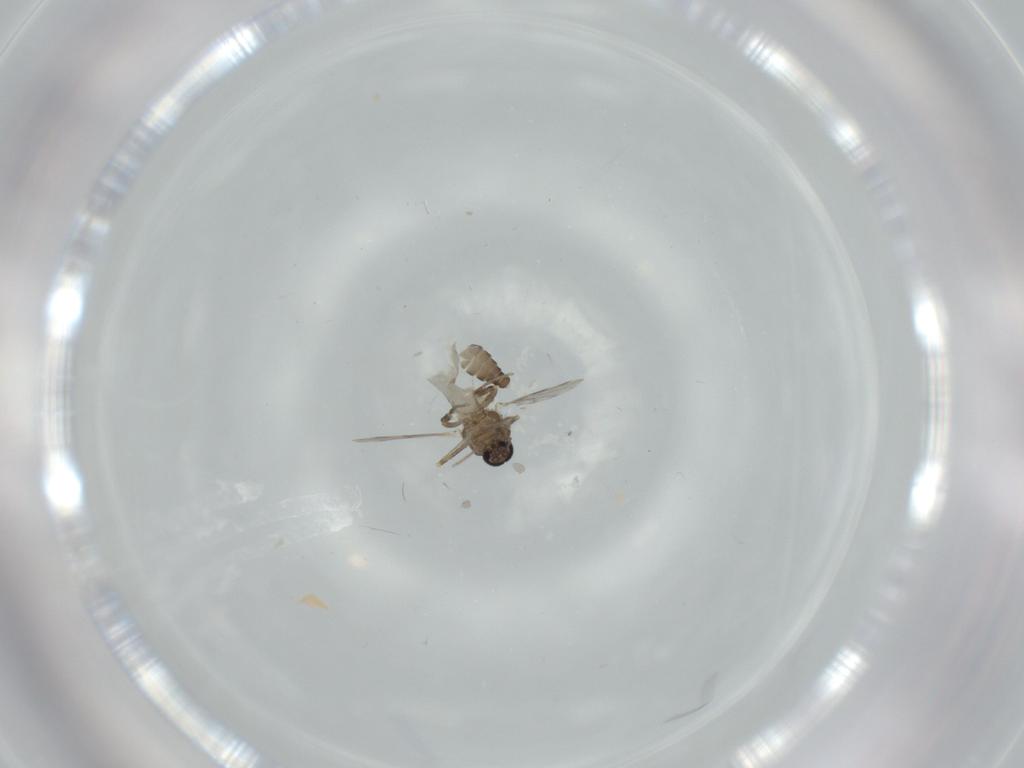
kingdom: Animalia
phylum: Arthropoda
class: Insecta
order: Diptera
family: Ceratopogonidae
